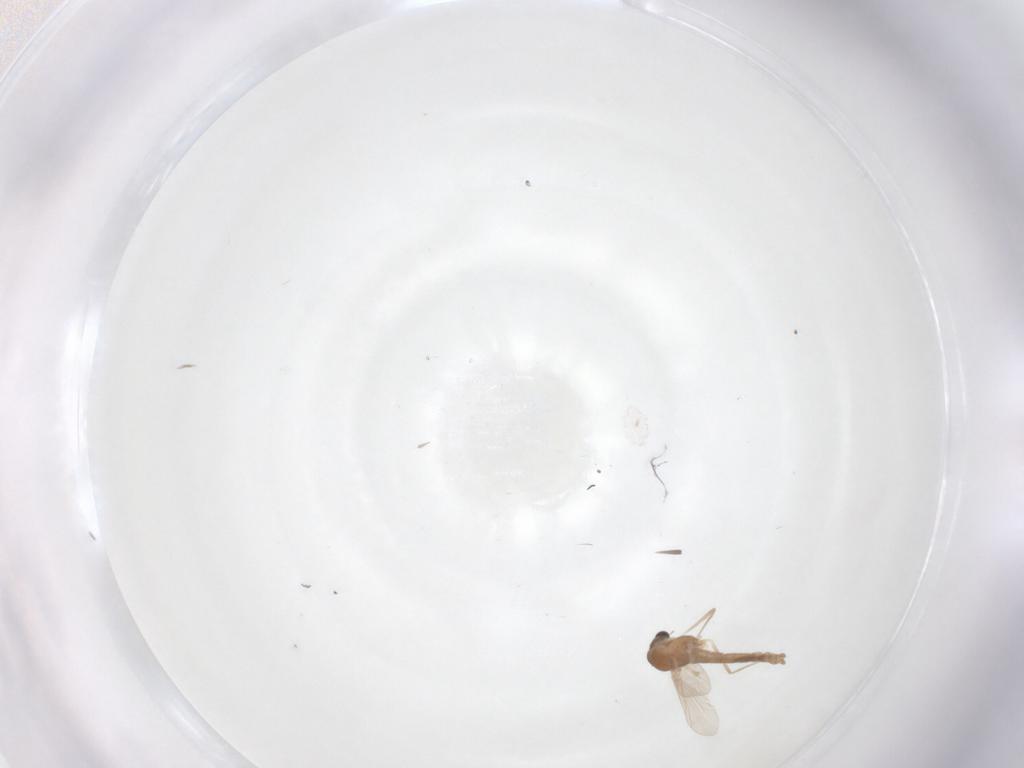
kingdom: Animalia
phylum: Arthropoda
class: Insecta
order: Diptera
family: Chironomidae
